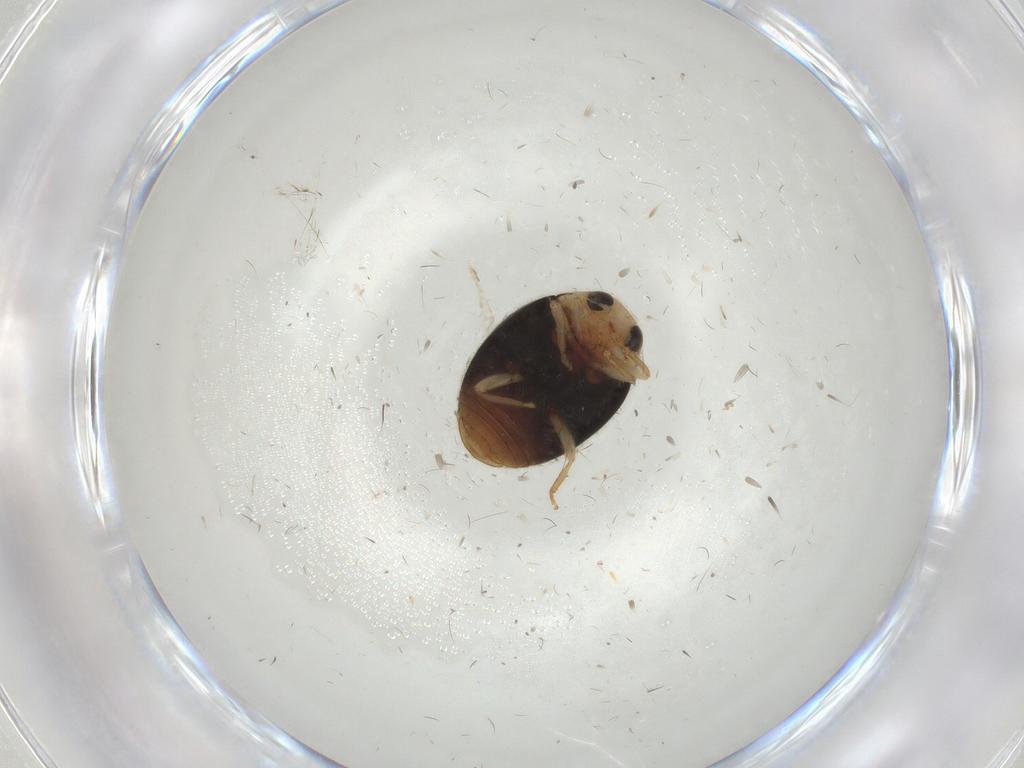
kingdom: Animalia
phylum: Arthropoda
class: Insecta
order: Coleoptera
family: Coccinellidae
